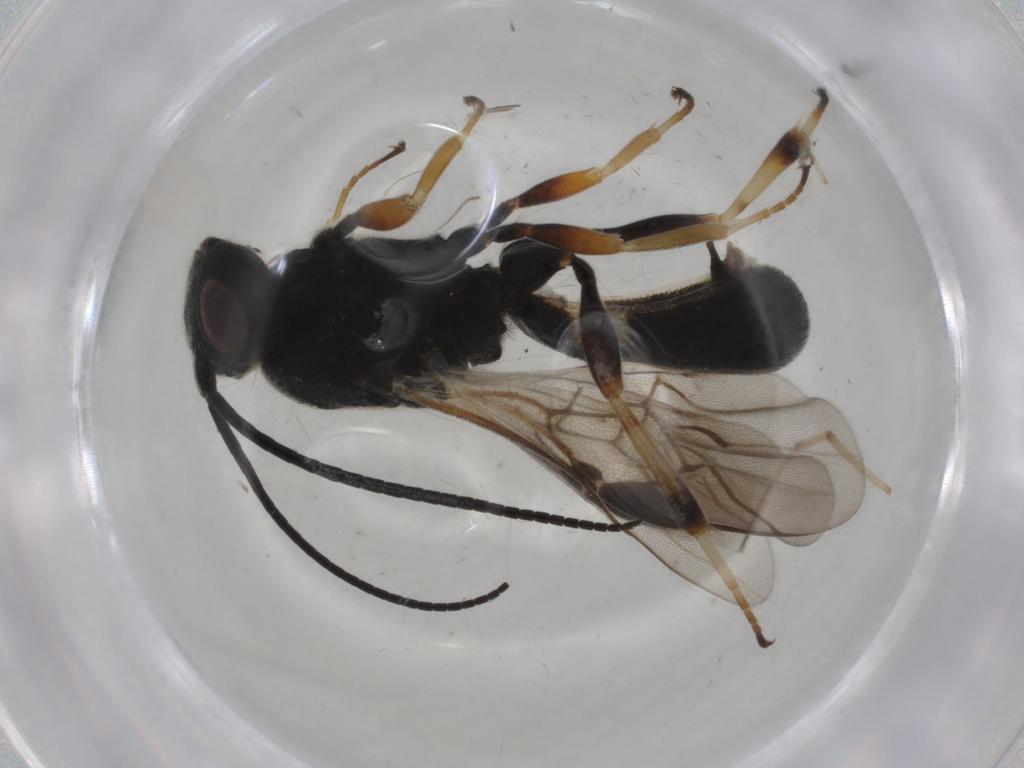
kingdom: Animalia
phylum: Arthropoda
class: Insecta
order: Hymenoptera
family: Braconidae
